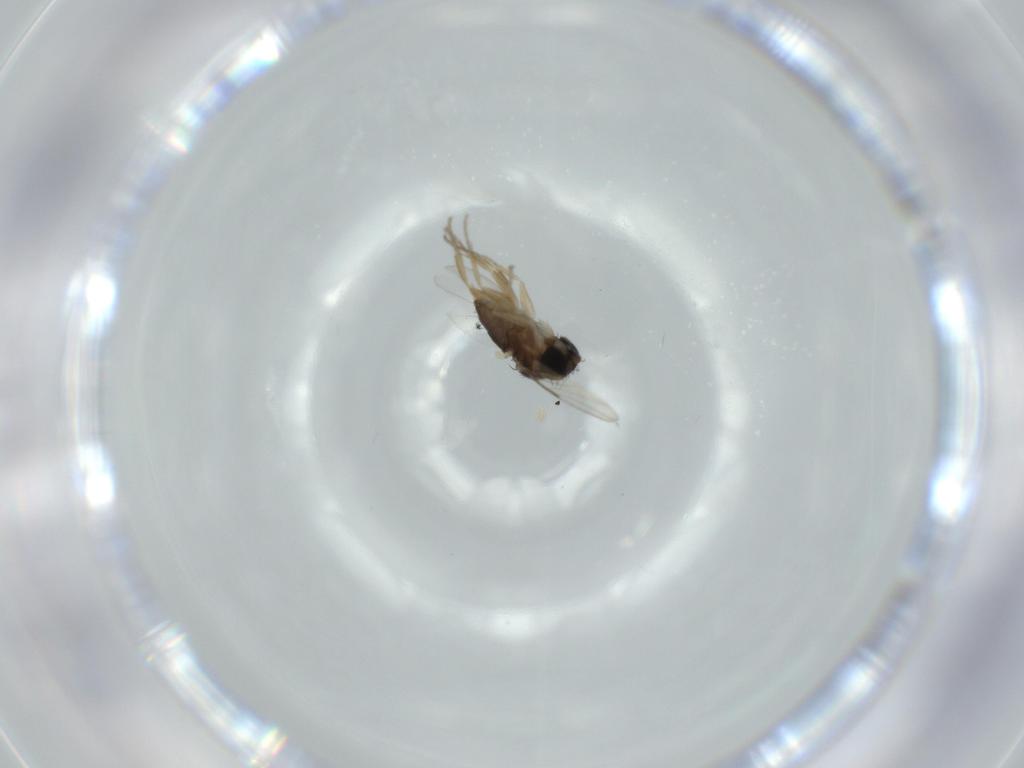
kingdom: Animalia
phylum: Arthropoda
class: Insecta
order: Diptera
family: Phoridae
